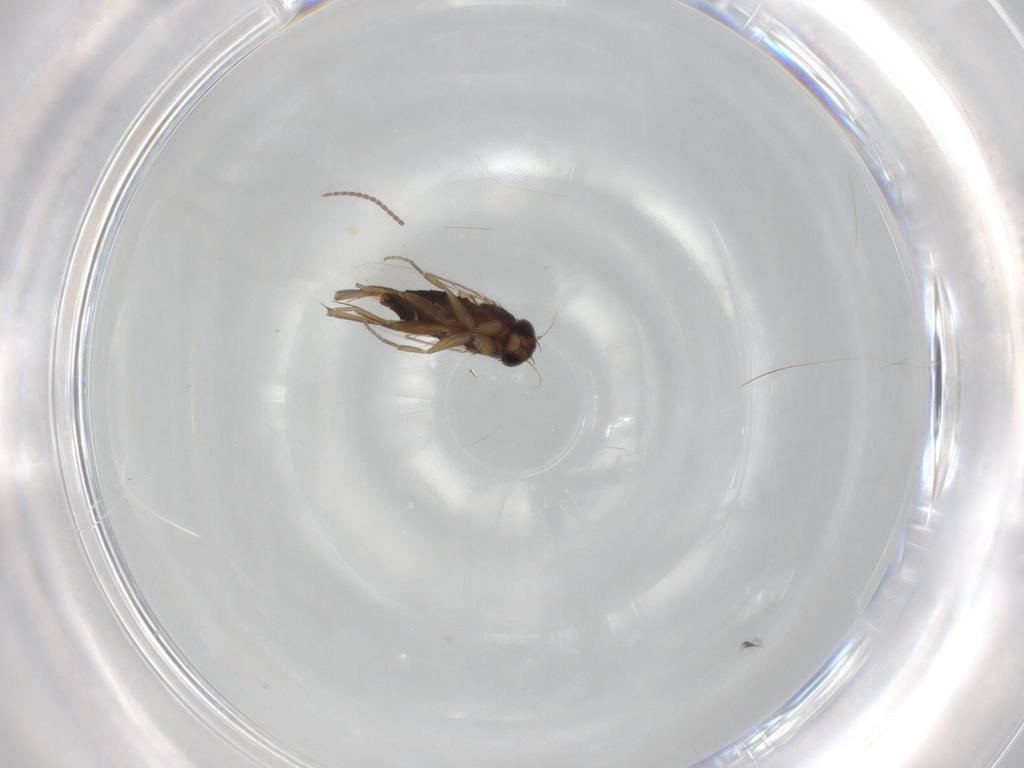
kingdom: Animalia
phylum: Arthropoda
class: Insecta
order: Diptera
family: Phoridae
